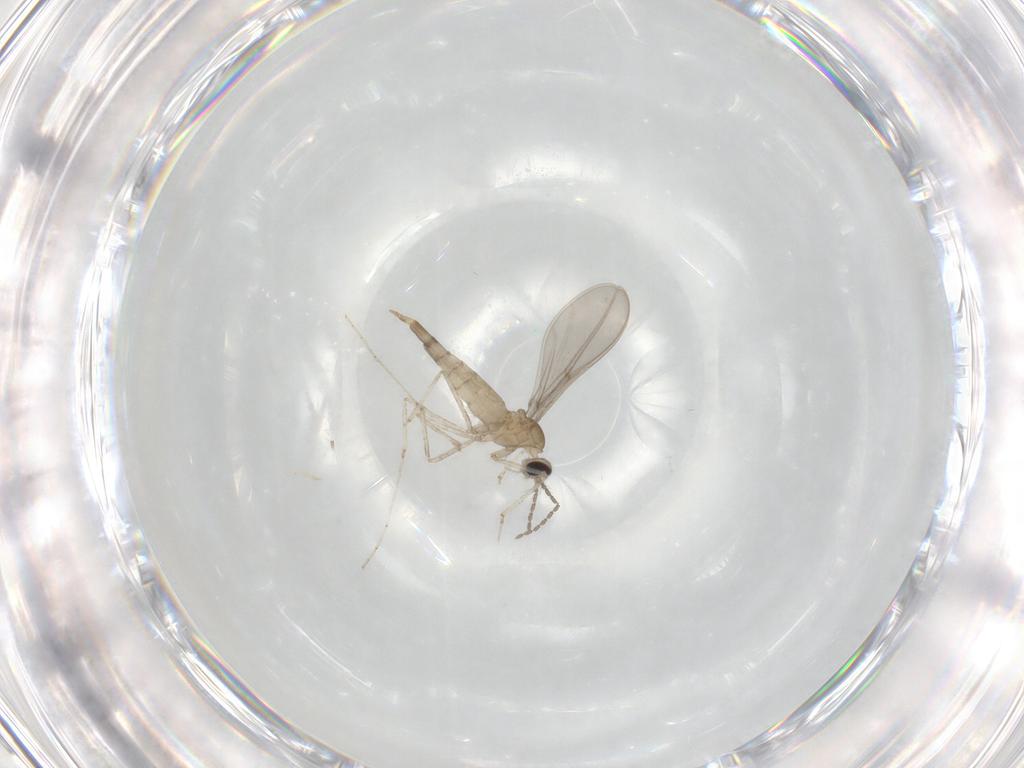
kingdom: Animalia
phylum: Arthropoda
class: Insecta
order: Diptera
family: Cecidomyiidae
